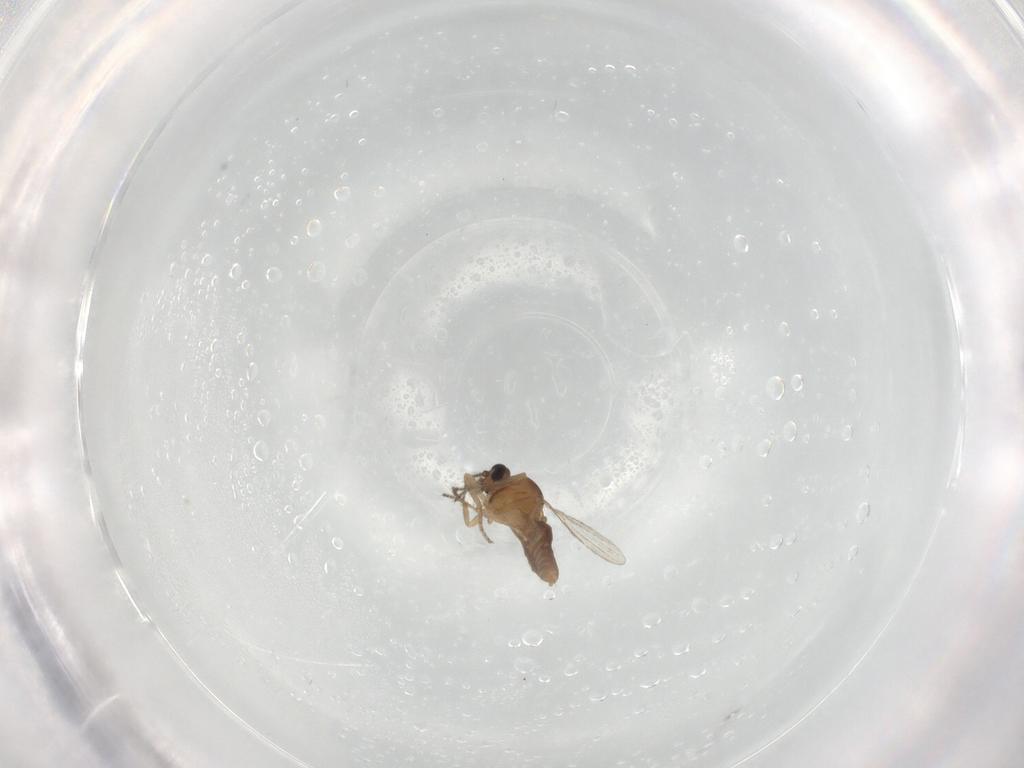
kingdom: Animalia
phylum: Arthropoda
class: Insecta
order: Diptera
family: Ceratopogonidae
